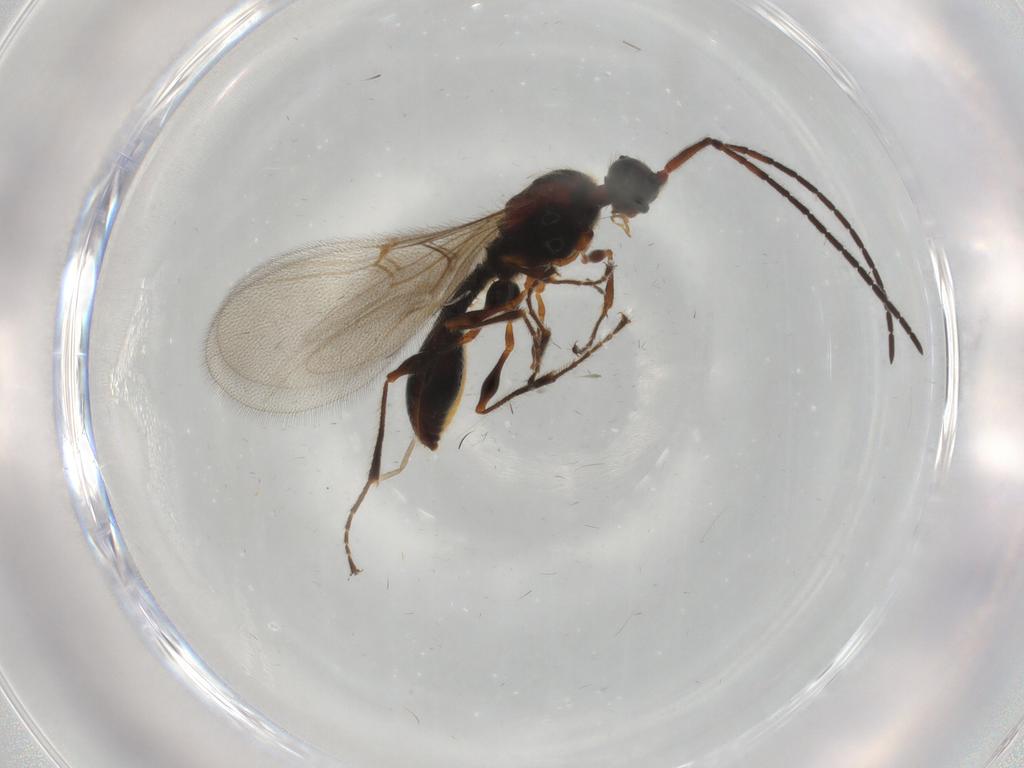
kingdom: Animalia
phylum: Arthropoda
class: Insecta
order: Hymenoptera
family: Diapriidae
